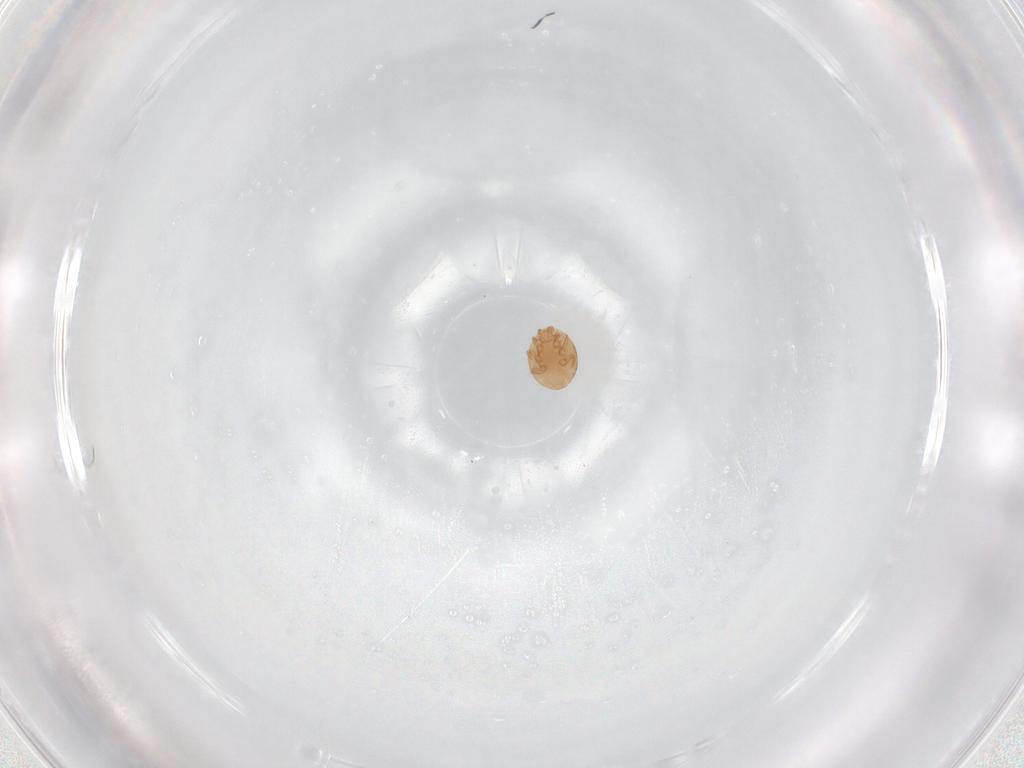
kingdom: Animalia
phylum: Arthropoda
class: Arachnida
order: Mesostigmata
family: Trematuridae
